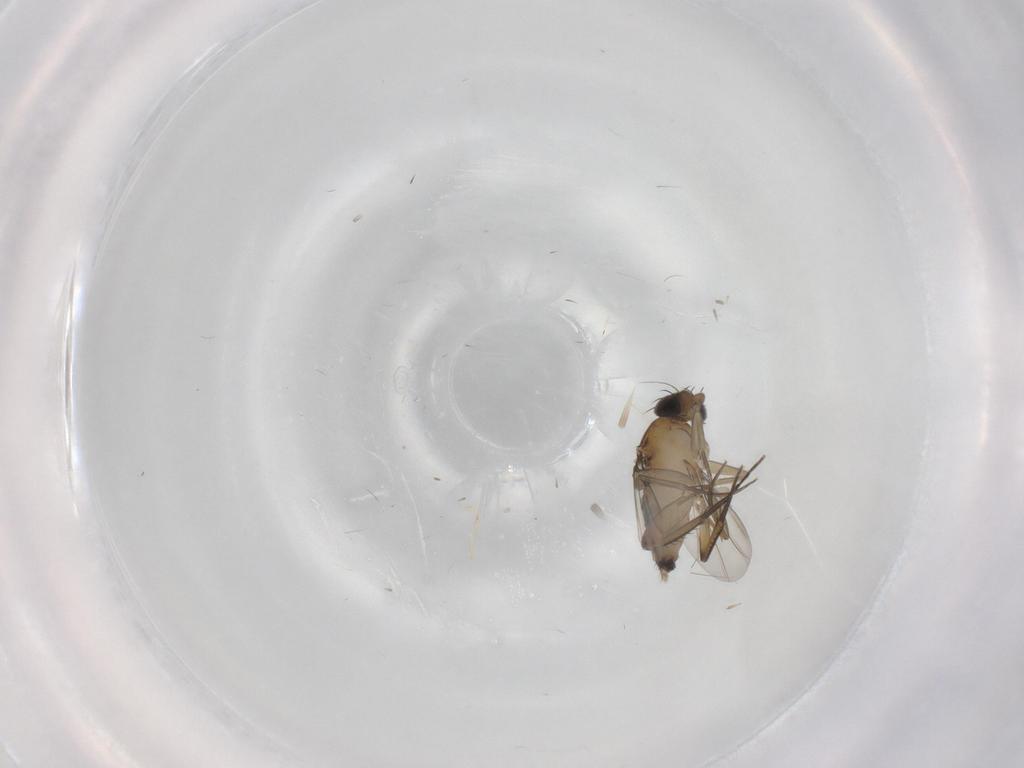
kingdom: Animalia
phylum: Arthropoda
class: Insecta
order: Diptera
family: Phoridae
